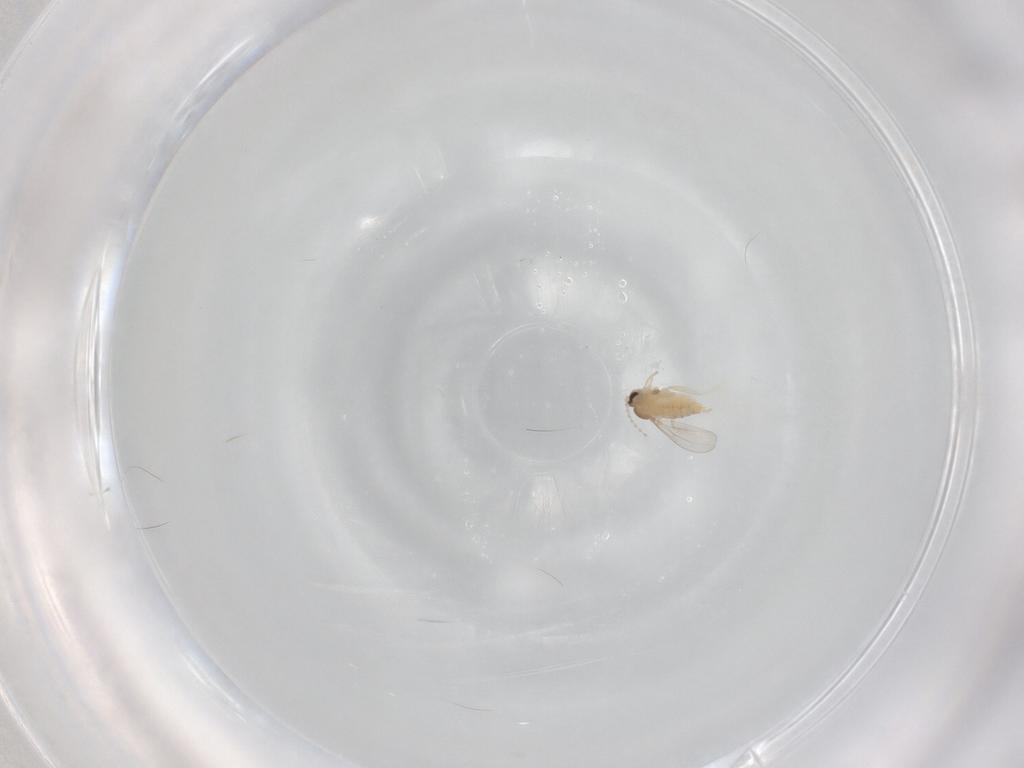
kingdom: Animalia
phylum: Arthropoda
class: Insecta
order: Diptera
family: Cecidomyiidae
